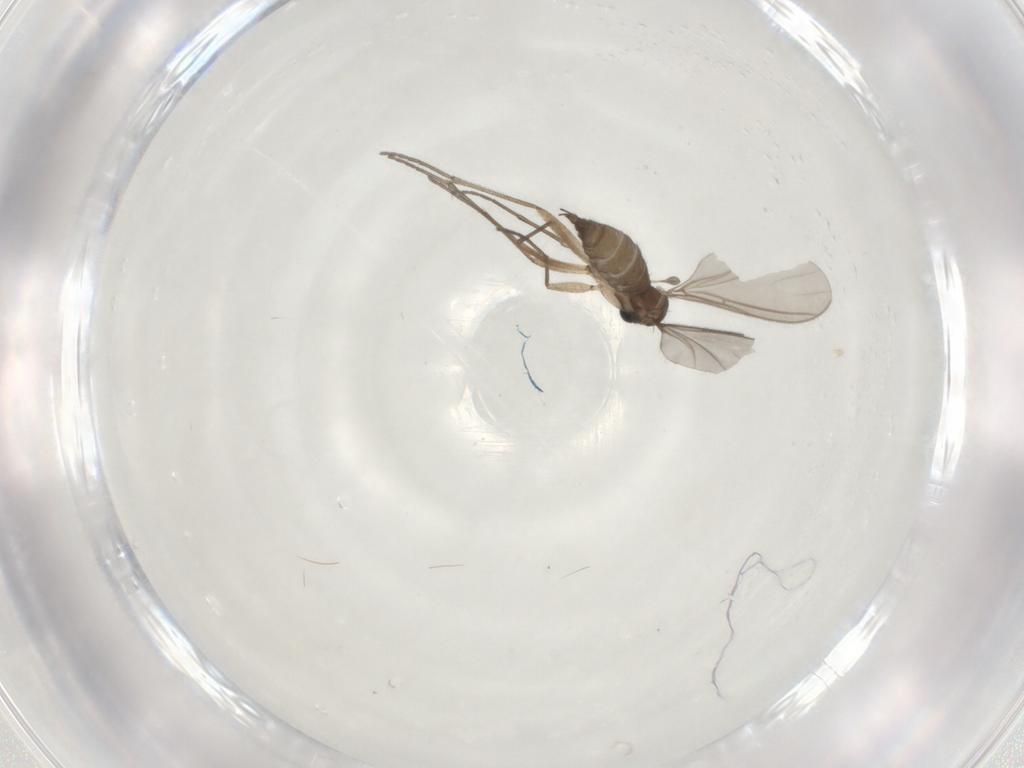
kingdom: Animalia
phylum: Arthropoda
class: Insecta
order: Diptera
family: Sciaridae
